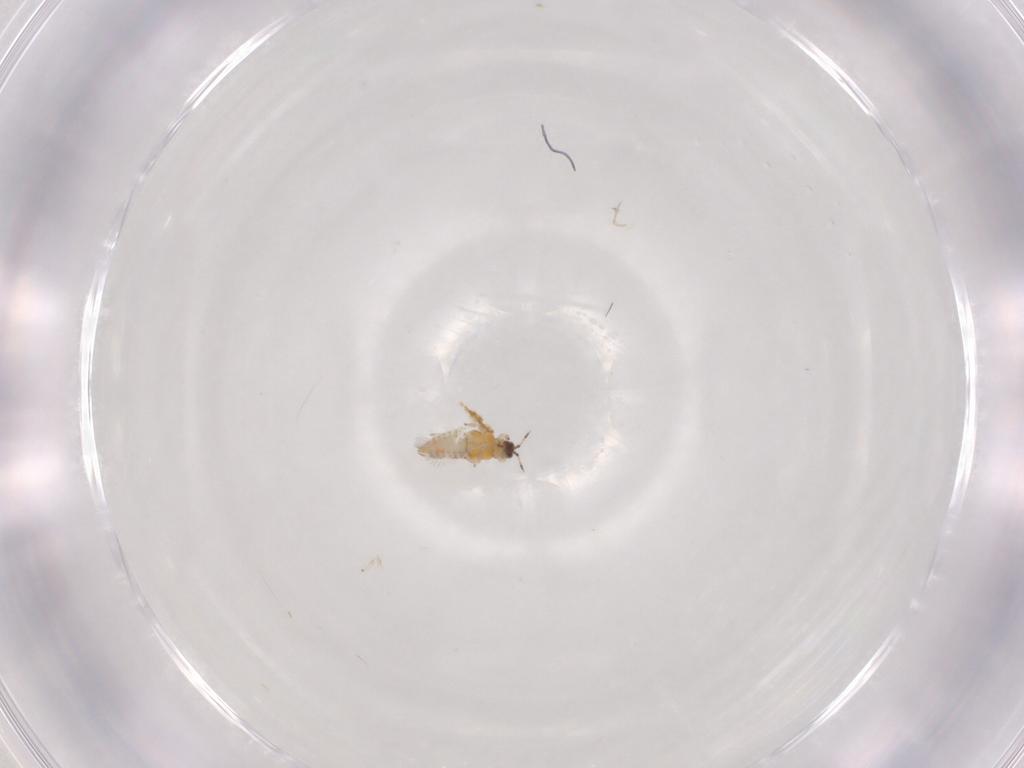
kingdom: Animalia
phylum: Arthropoda
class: Insecta
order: Thysanoptera
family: Thripidae
